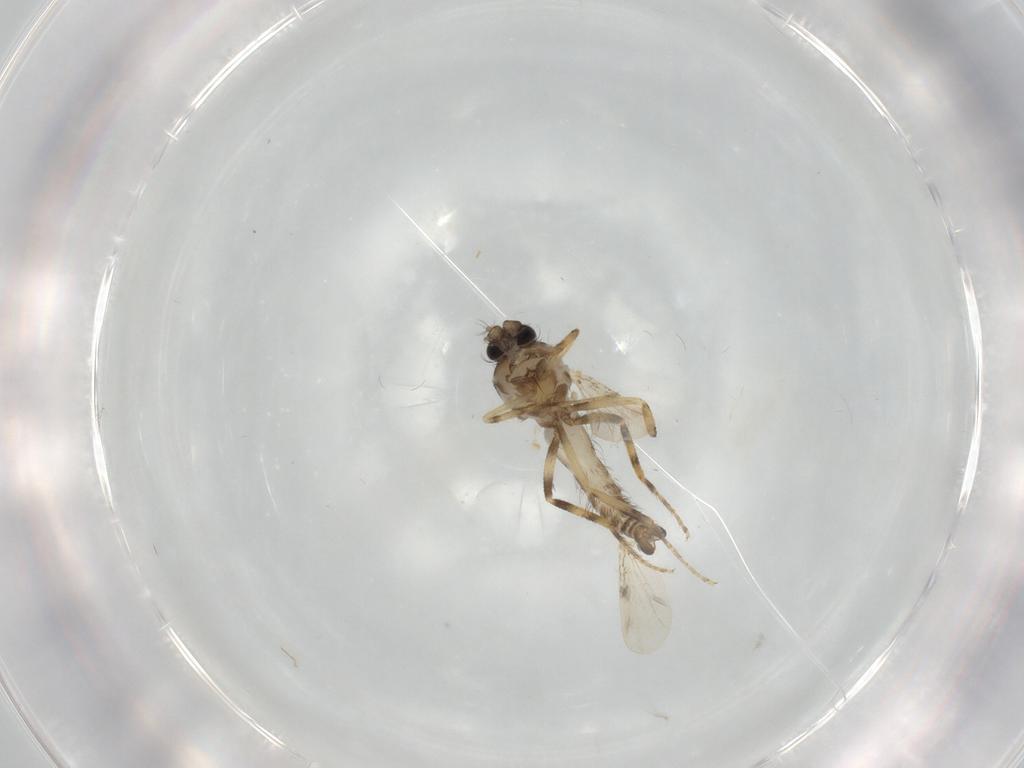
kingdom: Animalia
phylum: Arthropoda
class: Insecta
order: Diptera
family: Ceratopogonidae
